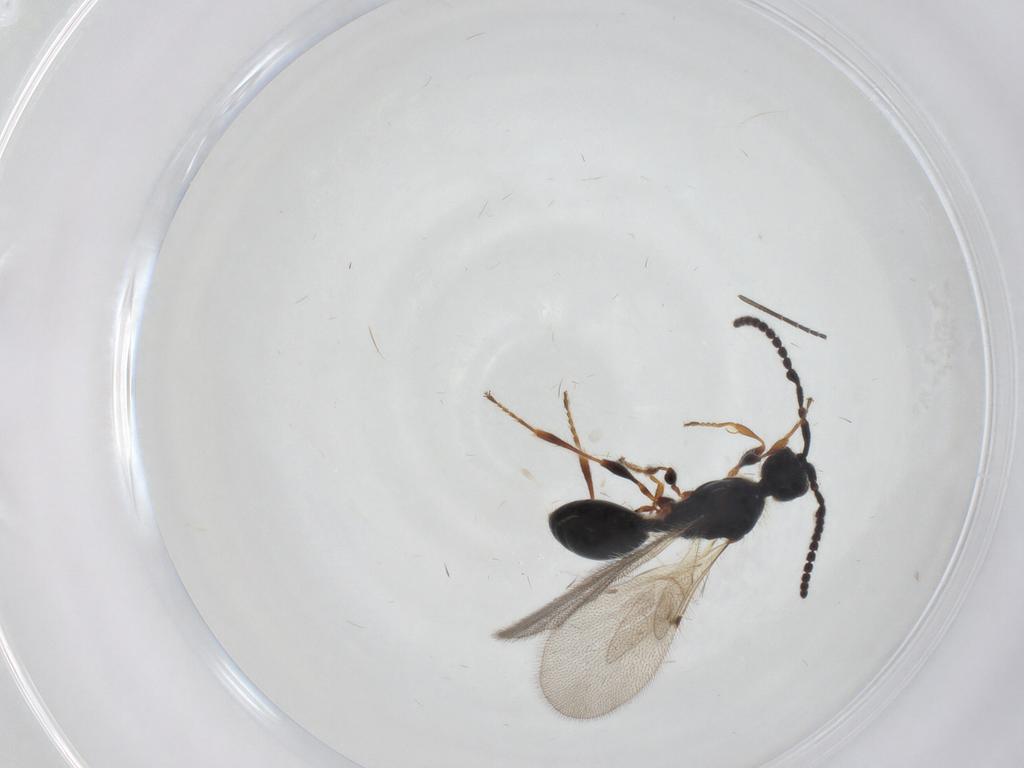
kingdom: Animalia
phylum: Arthropoda
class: Insecta
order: Hymenoptera
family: Diapriidae
